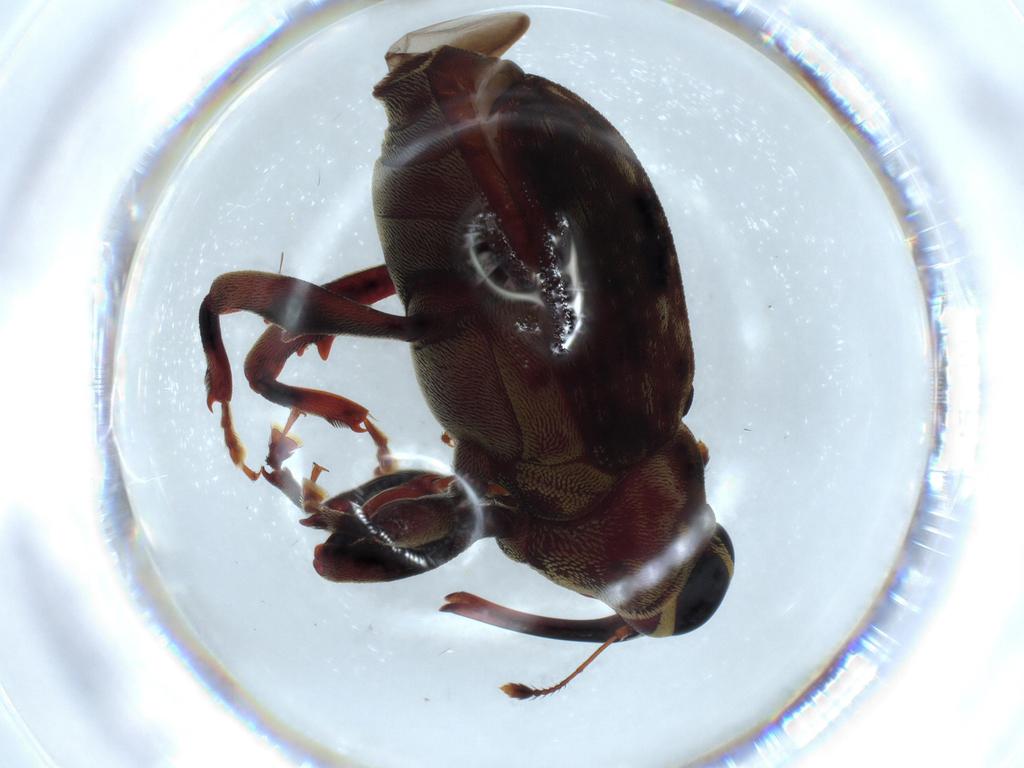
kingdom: Animalia
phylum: Arthropoda
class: Insecta
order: Coleoptera
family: Curculionidae
